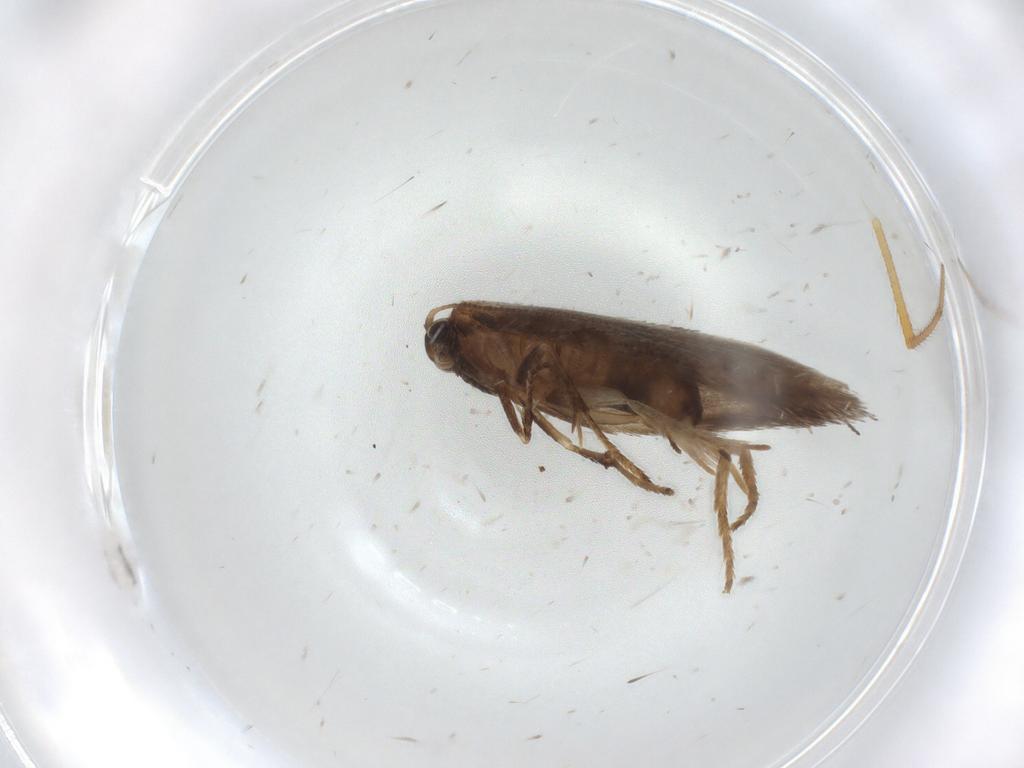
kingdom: Animalia
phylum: Arthropoda
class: Insecta
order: Lepidoptera
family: Nepticulidae
